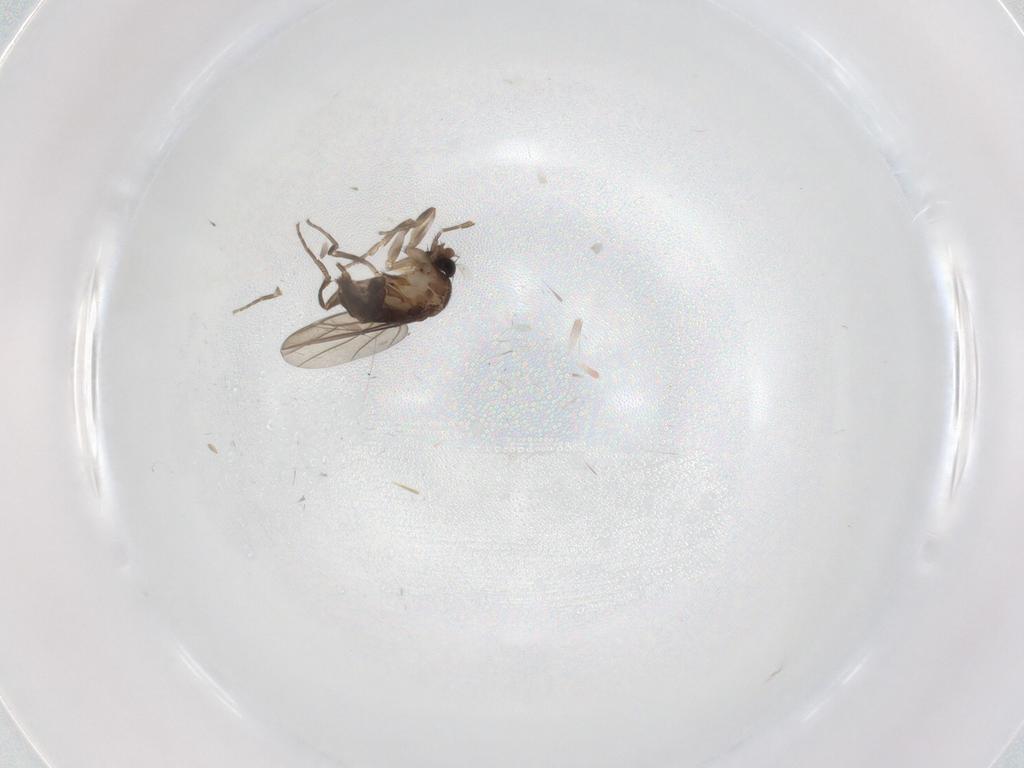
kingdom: Animalia
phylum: Arthropoda
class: Insecta
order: Diptera
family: Phoridae
